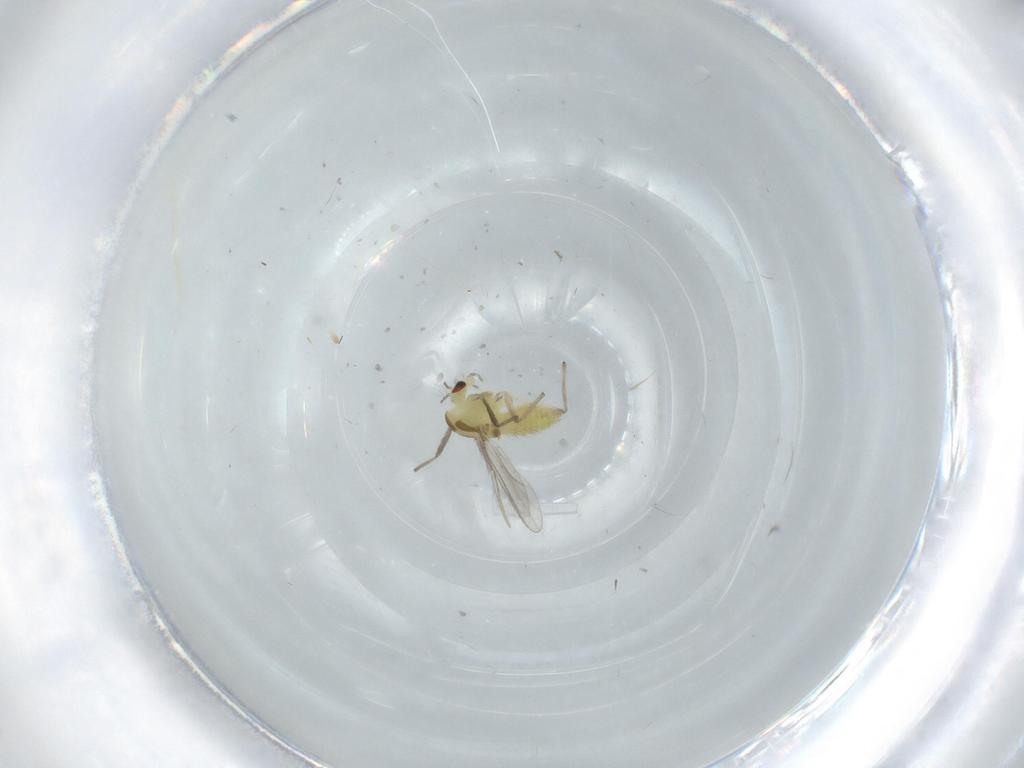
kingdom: Animalia
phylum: Arthropoda
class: Insecta
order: Diptera
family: Chironomidae
